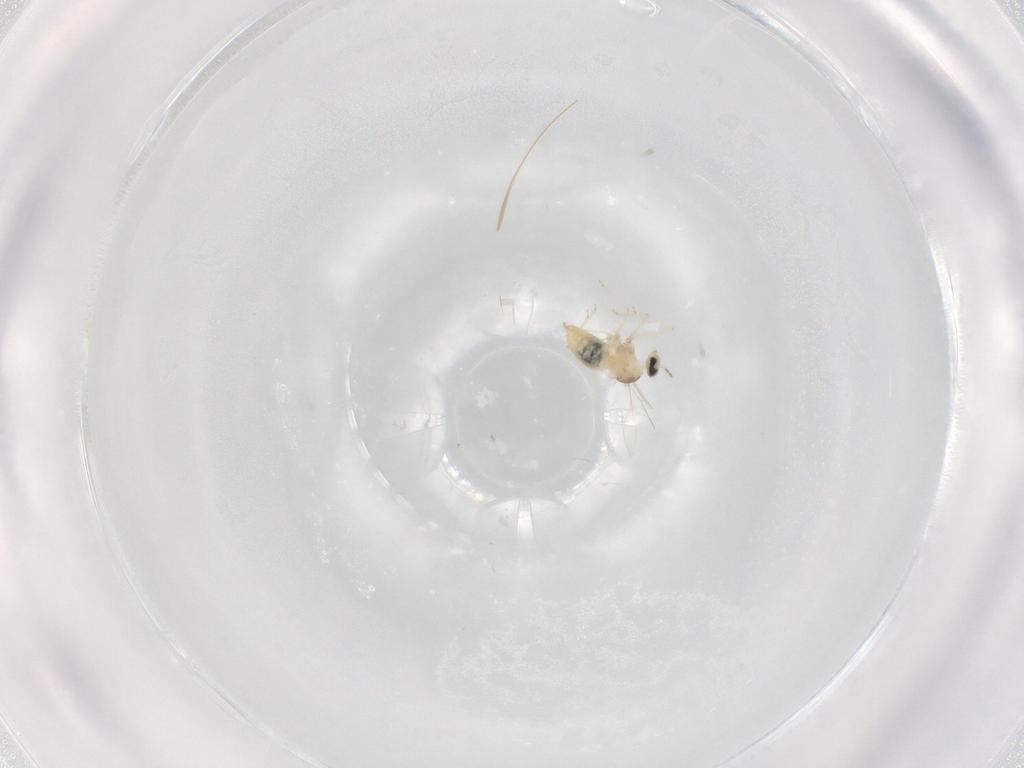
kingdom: Animalia
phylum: Arthropoda
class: Insecta
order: Diptera
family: Cecidomyiidae
